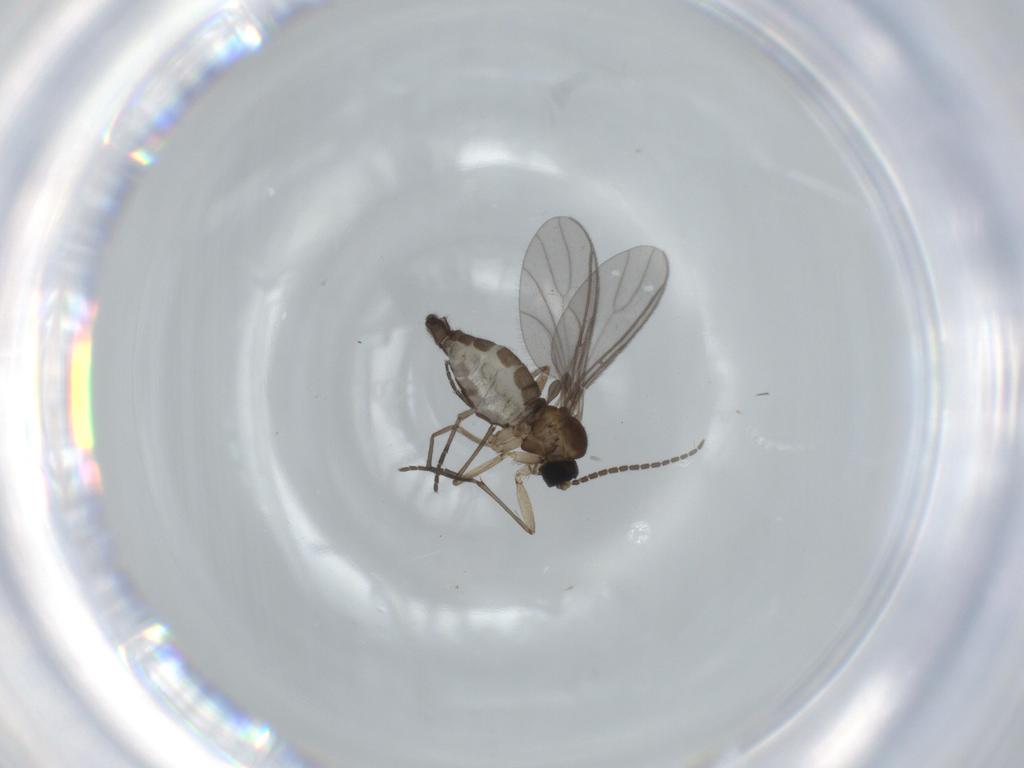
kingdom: Animalia
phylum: Arthropoda
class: Insecta
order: Diptera
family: Sciaridae
